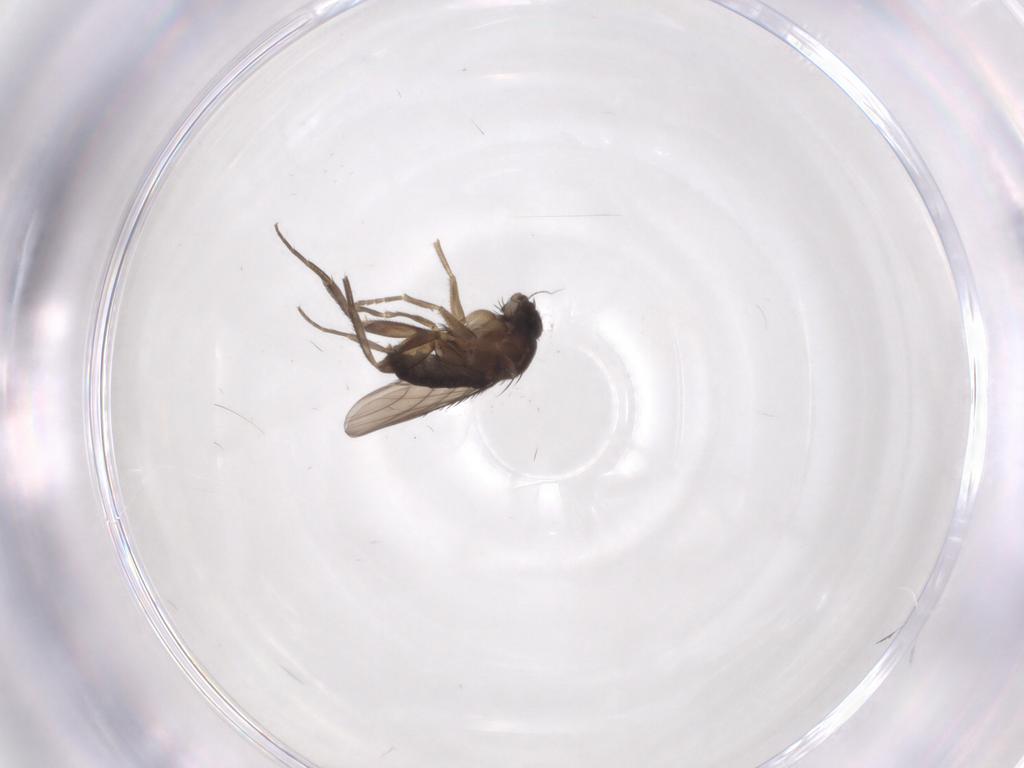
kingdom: Animalia
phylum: Arthropoda
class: Insecta
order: Diptera
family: Phoridae
